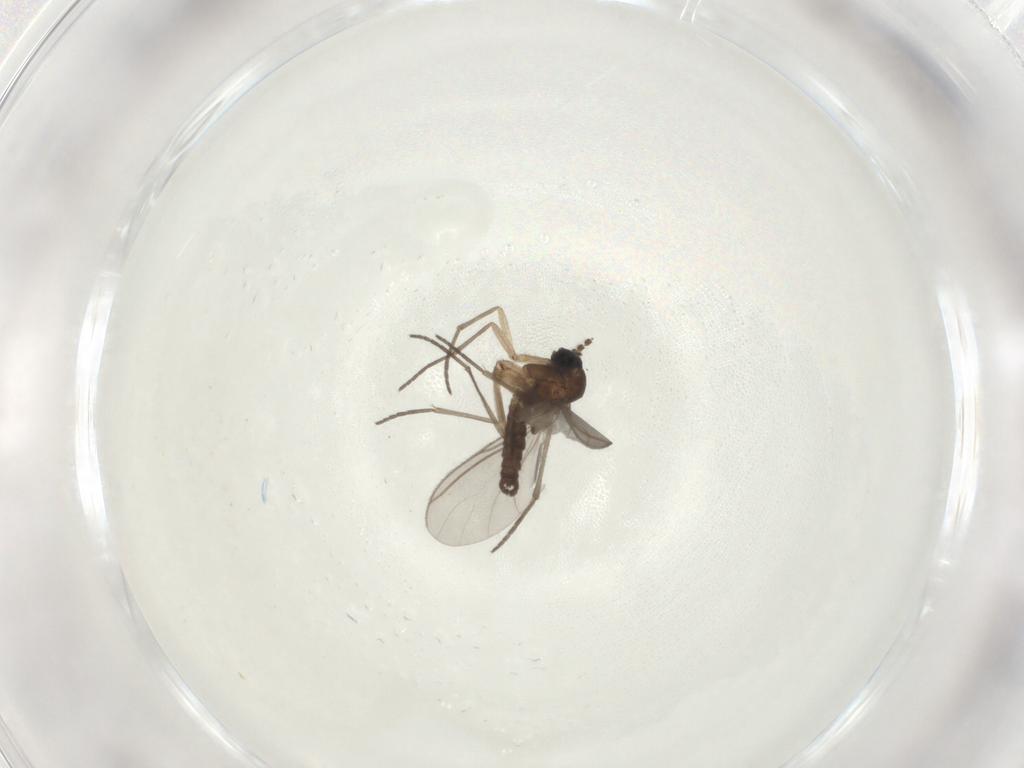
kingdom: Animalia
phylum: Arthropoda
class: Insecta
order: Diptera
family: Sciaridae
